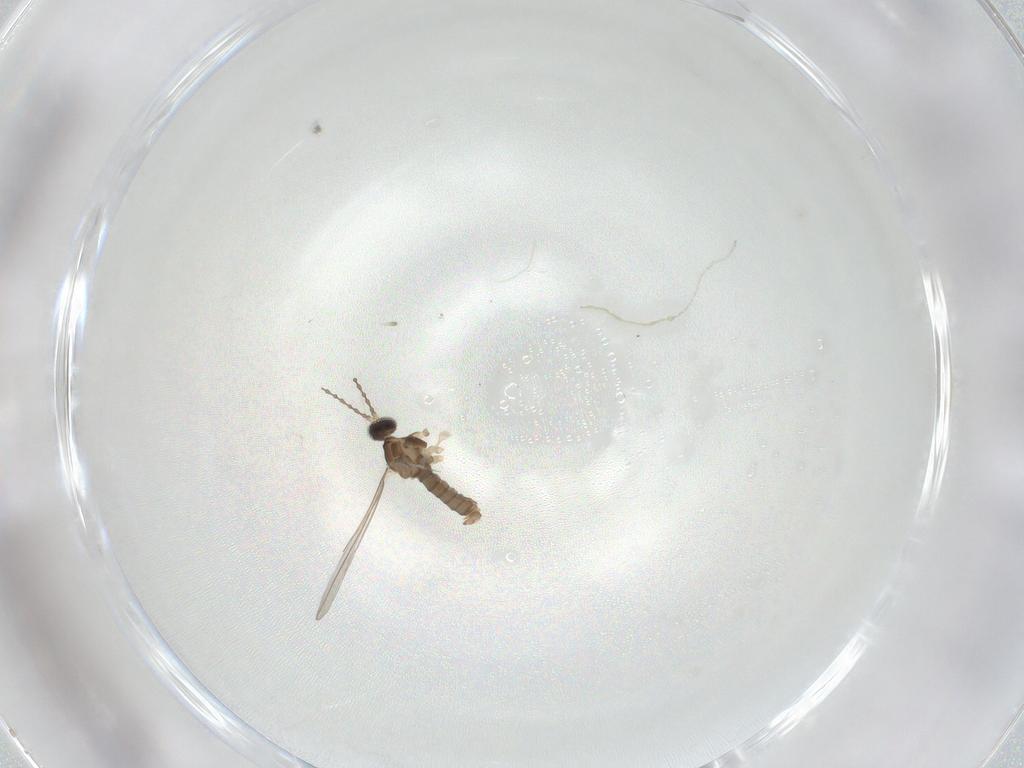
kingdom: Animalia
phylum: Arthropoda
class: Insecta
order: Diptera
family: Cecidomyiidae
